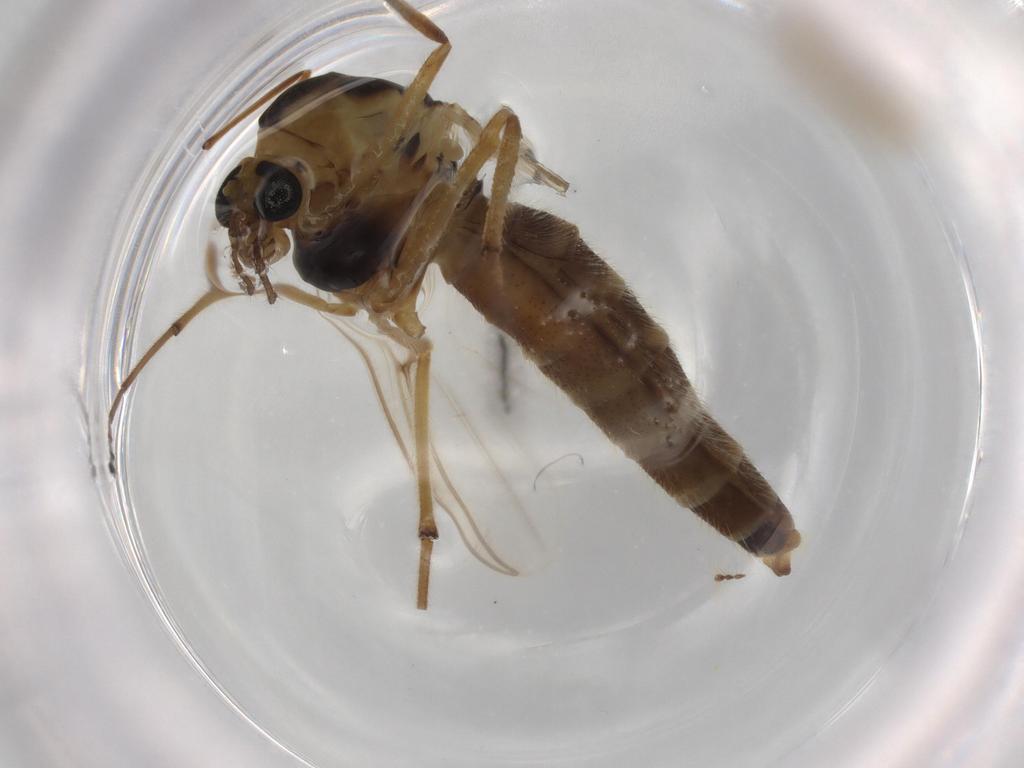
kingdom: Animalia
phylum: Arthropoda
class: Insecta
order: Diptera
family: Chironomidae
